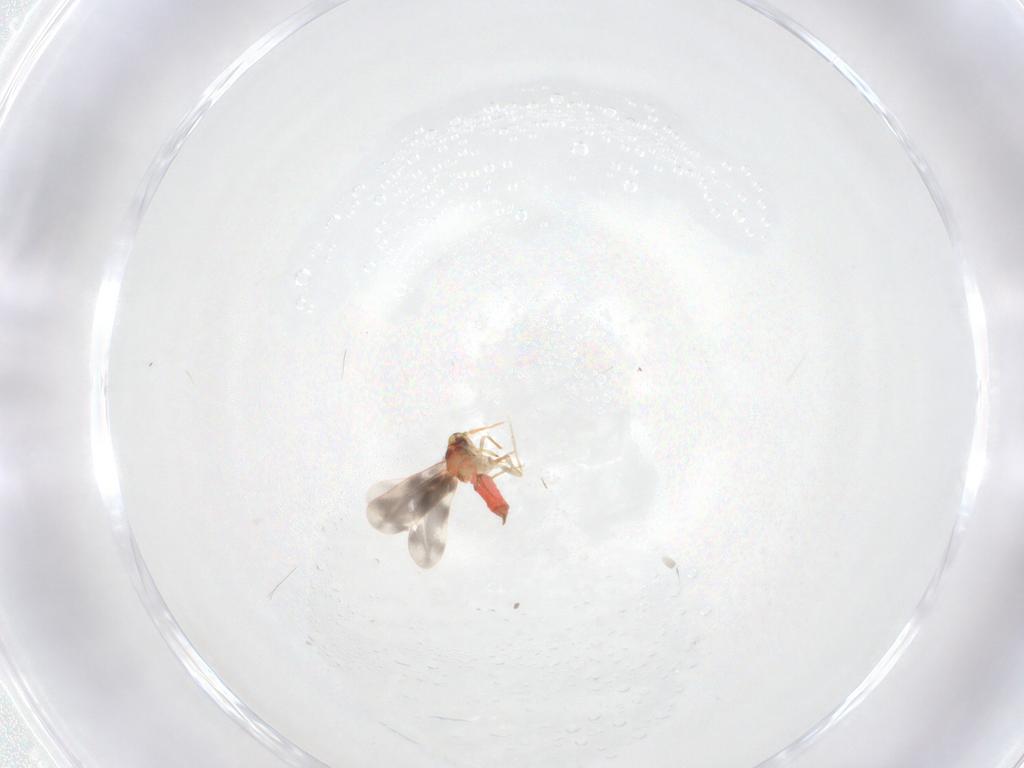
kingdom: Animalia
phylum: Arthropoda
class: Insecta
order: Hemiptera
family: Aleyrodidae
